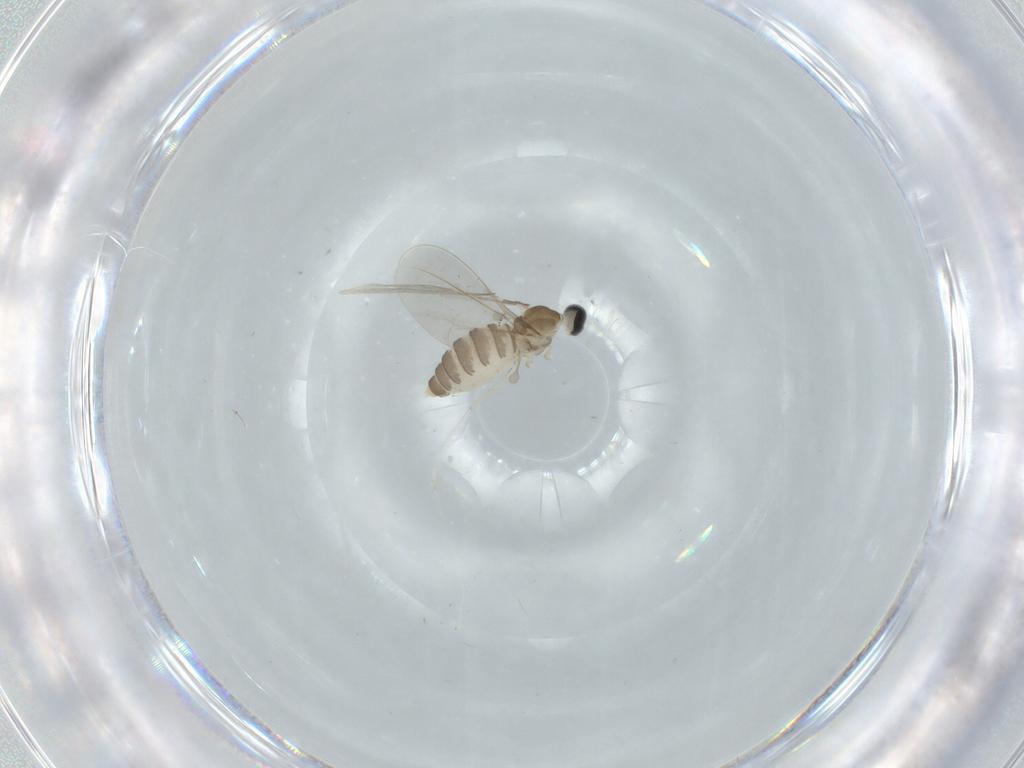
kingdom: Animalia
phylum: Arthropoda
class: Insecta
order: Diptera
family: Cecidomyiidae
